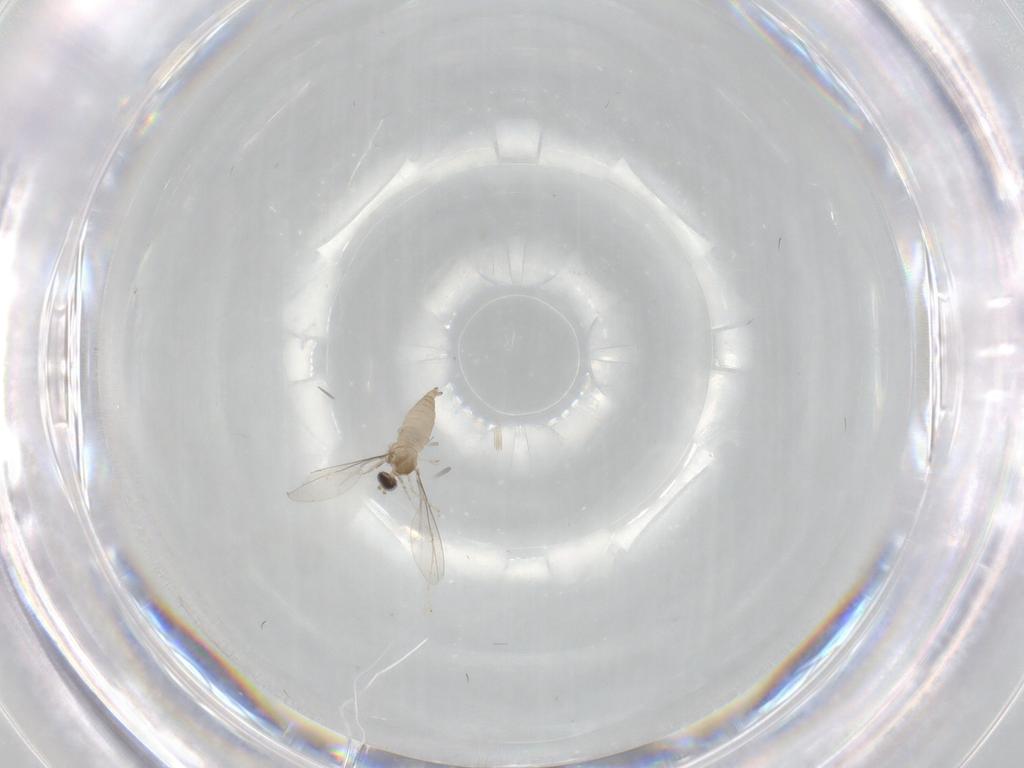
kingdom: Animalia
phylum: Arthropoda
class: Insecta
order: Diptera
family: Cecidomyiidae
